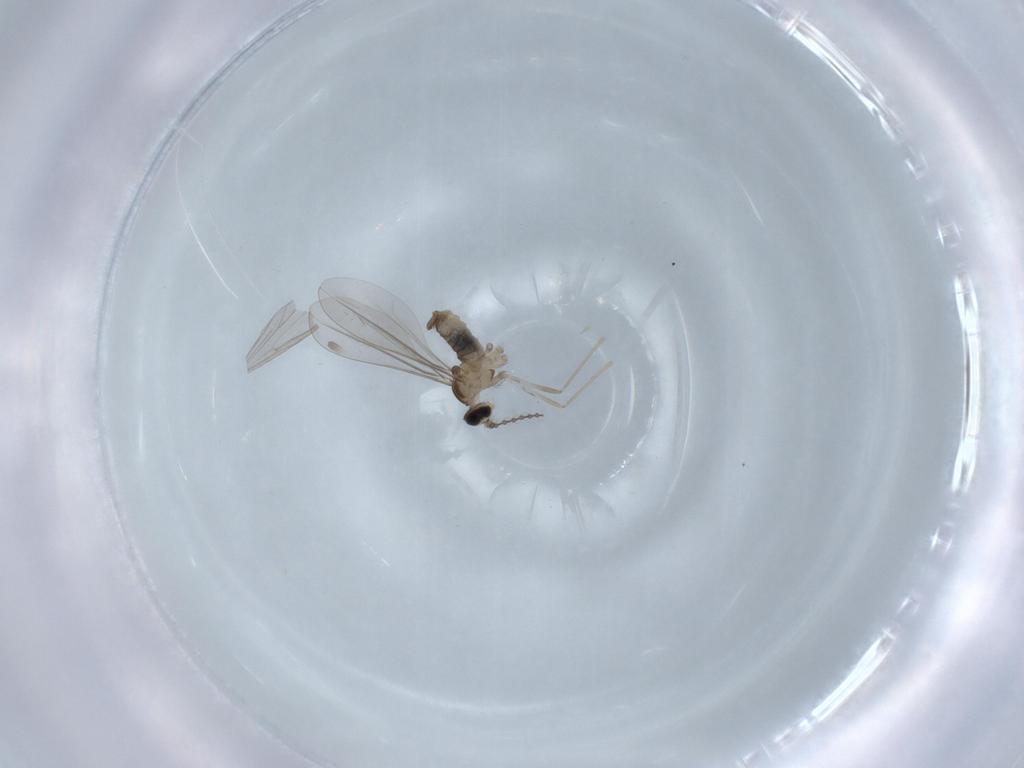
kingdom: Animalia
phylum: Arthropoda
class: Insecta
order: Diptera
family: Cecidomyiidae
